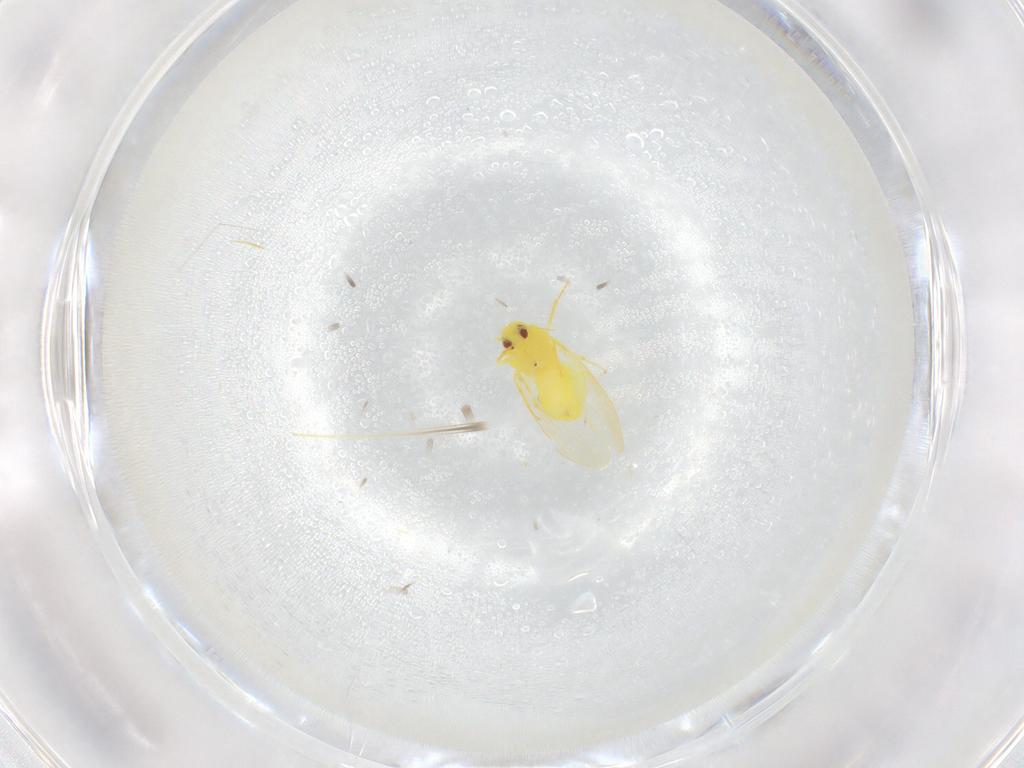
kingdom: Animalia
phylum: Arthropoda
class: Insecta
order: Hemiptera
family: Aleyrodidae
